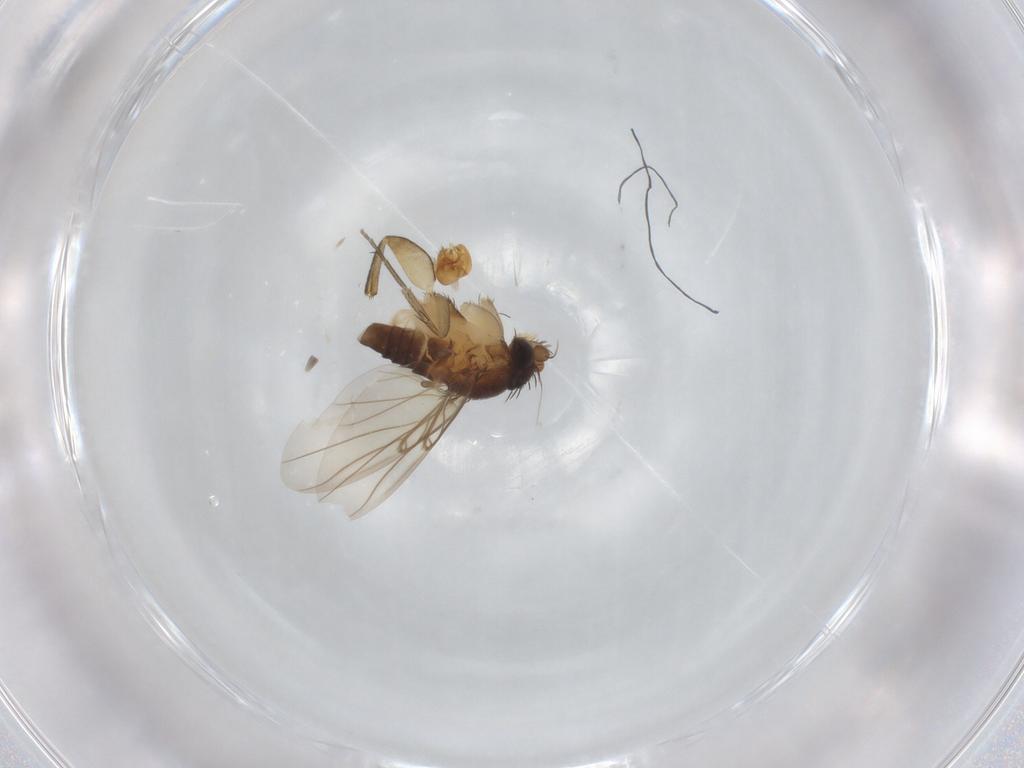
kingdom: Animalia
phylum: Arthropoda
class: Insecta
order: Diptera
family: Phoridae
